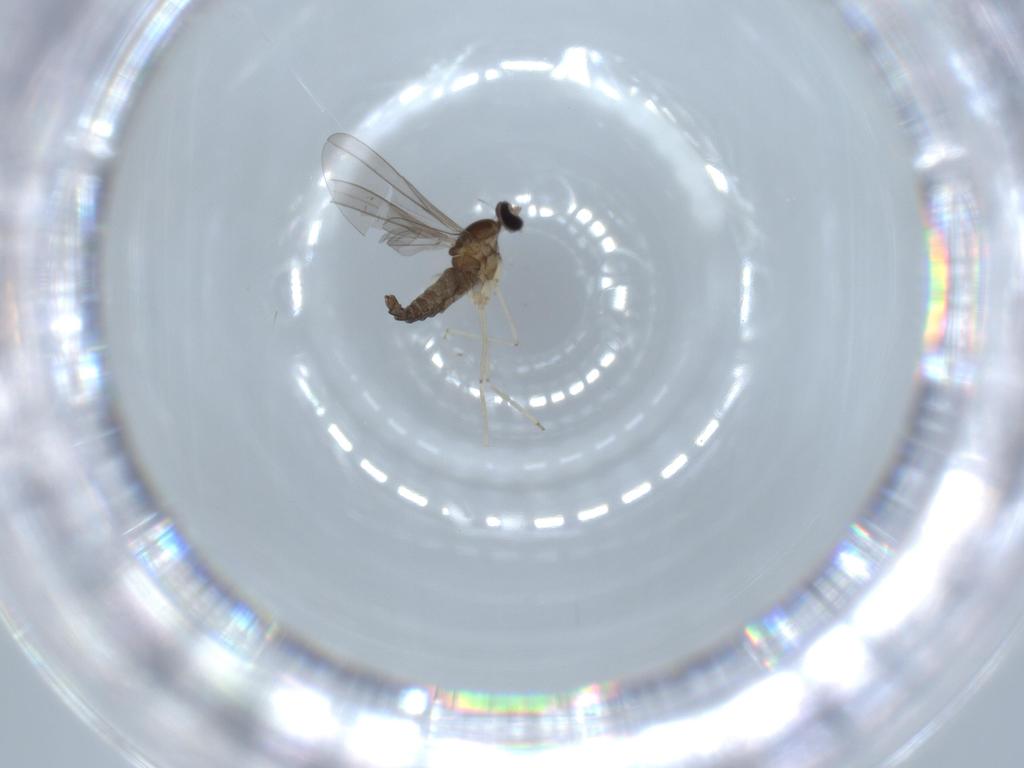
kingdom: Animalia
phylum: Arthropoda
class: Insecta
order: Diptera
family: Cecidomyiidae
